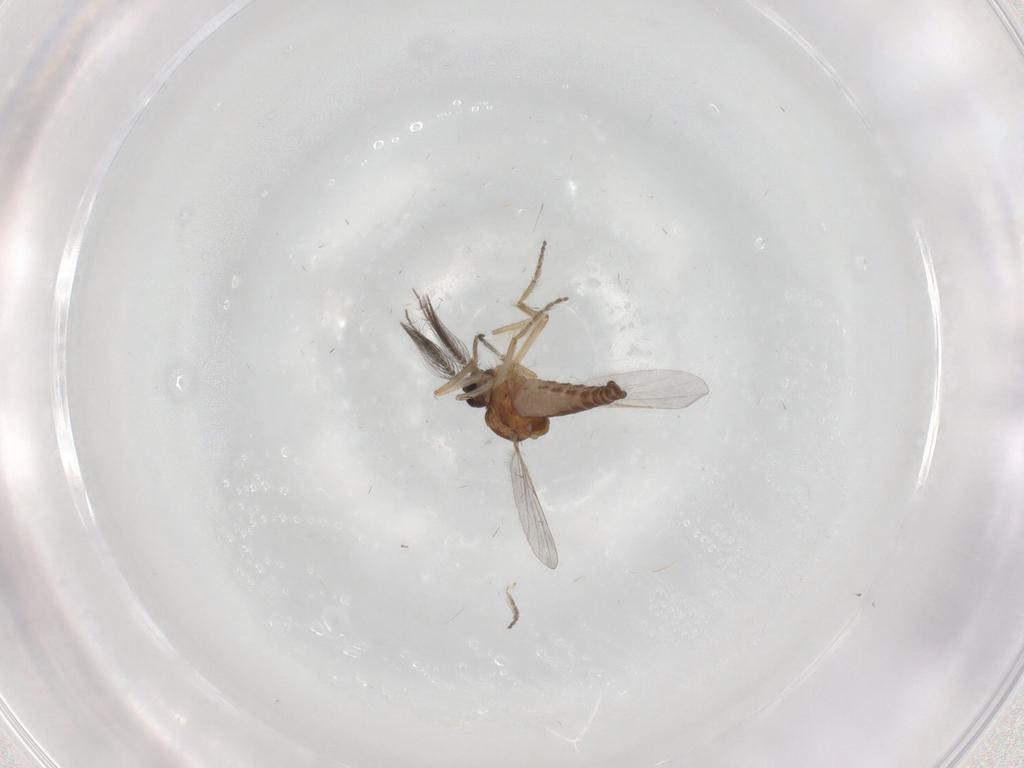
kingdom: Animalia
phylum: Arthropoda
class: Insecta
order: Diptera
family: Ceratopogonidae
